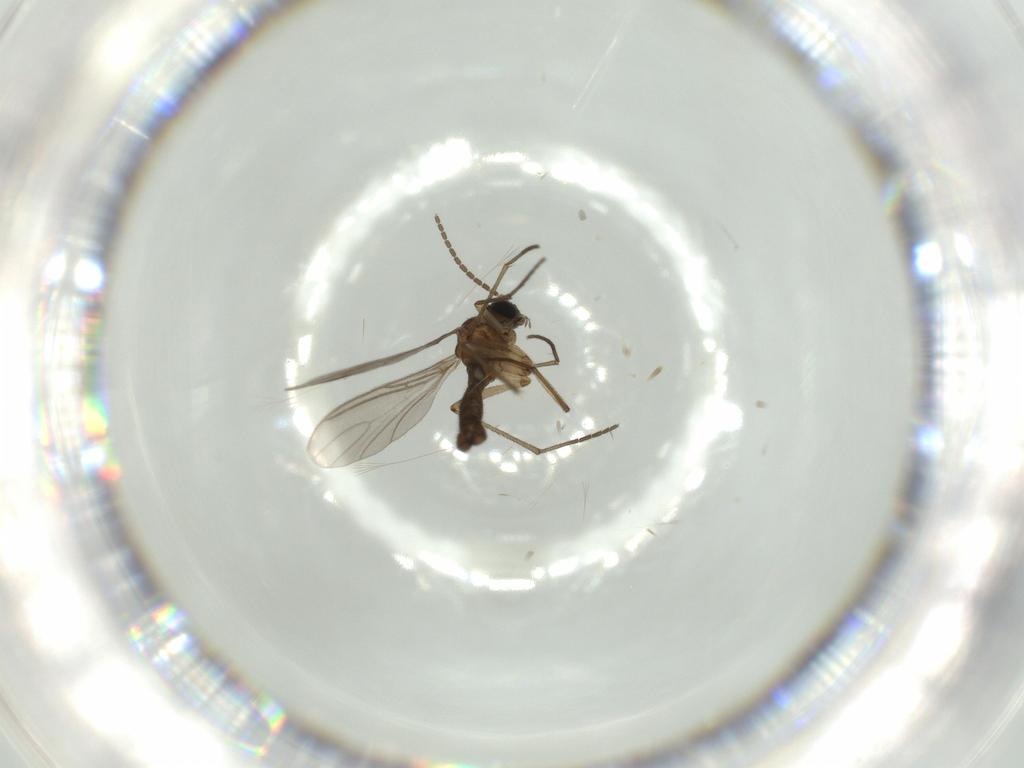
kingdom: Animalia
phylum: Arthropoda
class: Insecta
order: Diptera
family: Sciaridae
